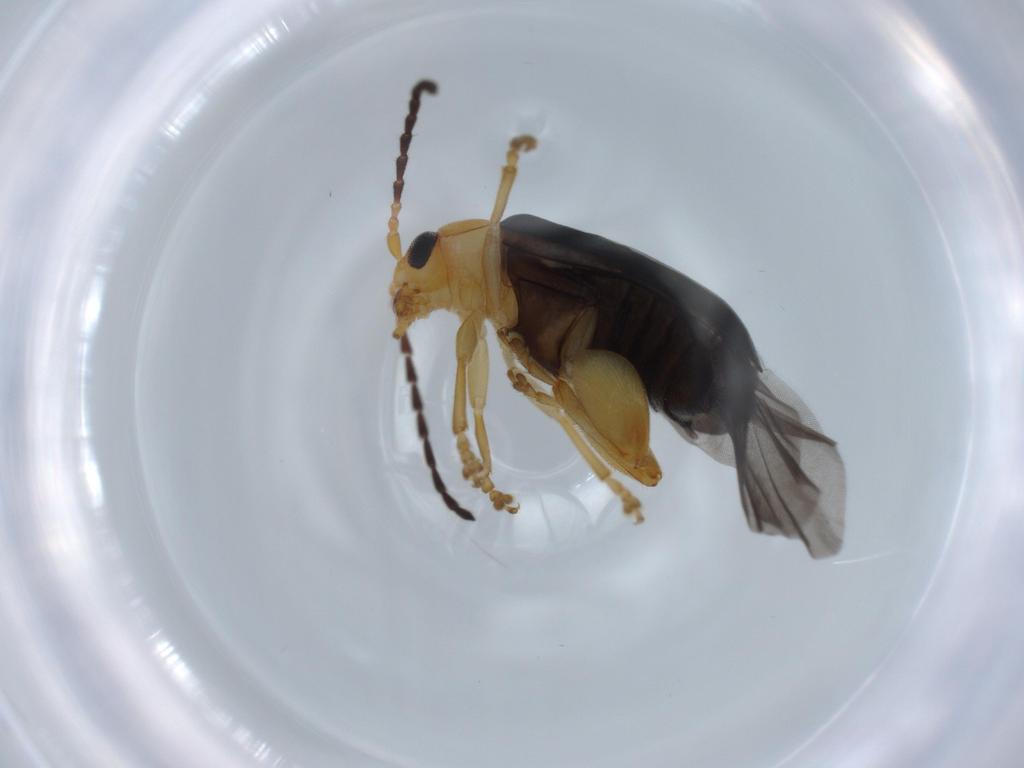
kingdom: Animalia
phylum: Arthropoda
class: Insecta
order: Coleoptera
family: Chrysomelidae
